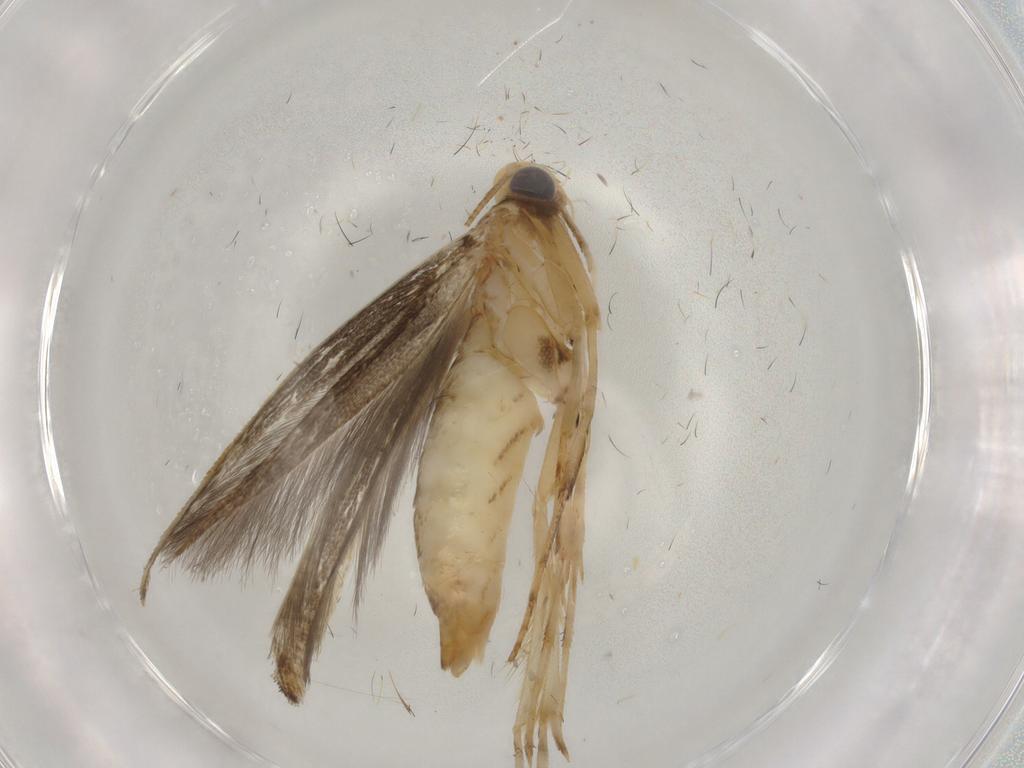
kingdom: Animalia
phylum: Arthropoda
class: Insecta
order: Lepidoptera
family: Gracillariidae
